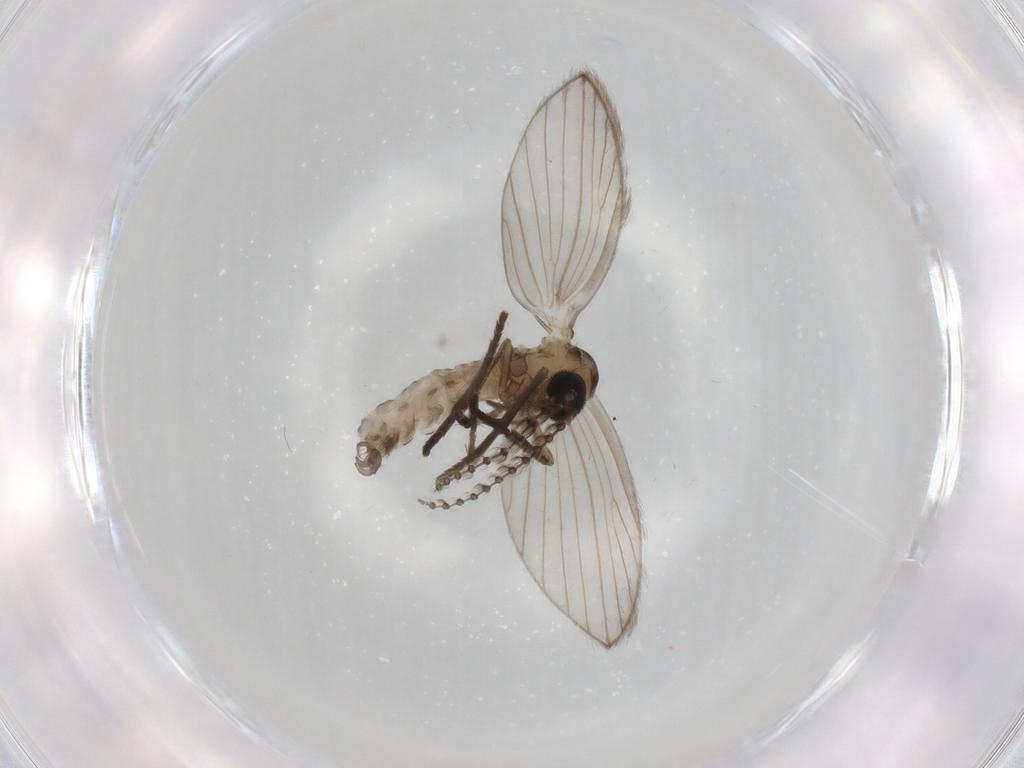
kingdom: Animalia
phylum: Arthropoda
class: Insecta
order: Diptera
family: Psychodidae
